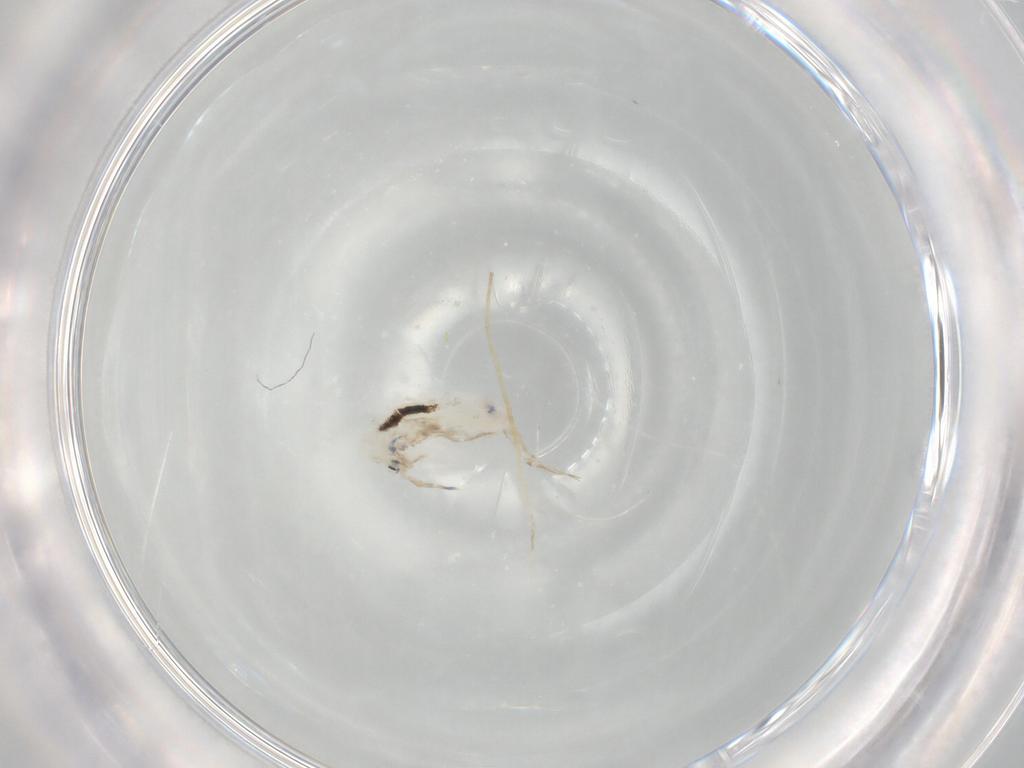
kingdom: Animalia
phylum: Arthropoda
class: Collembola
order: Entomobryomorpha
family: Entomobryidae
